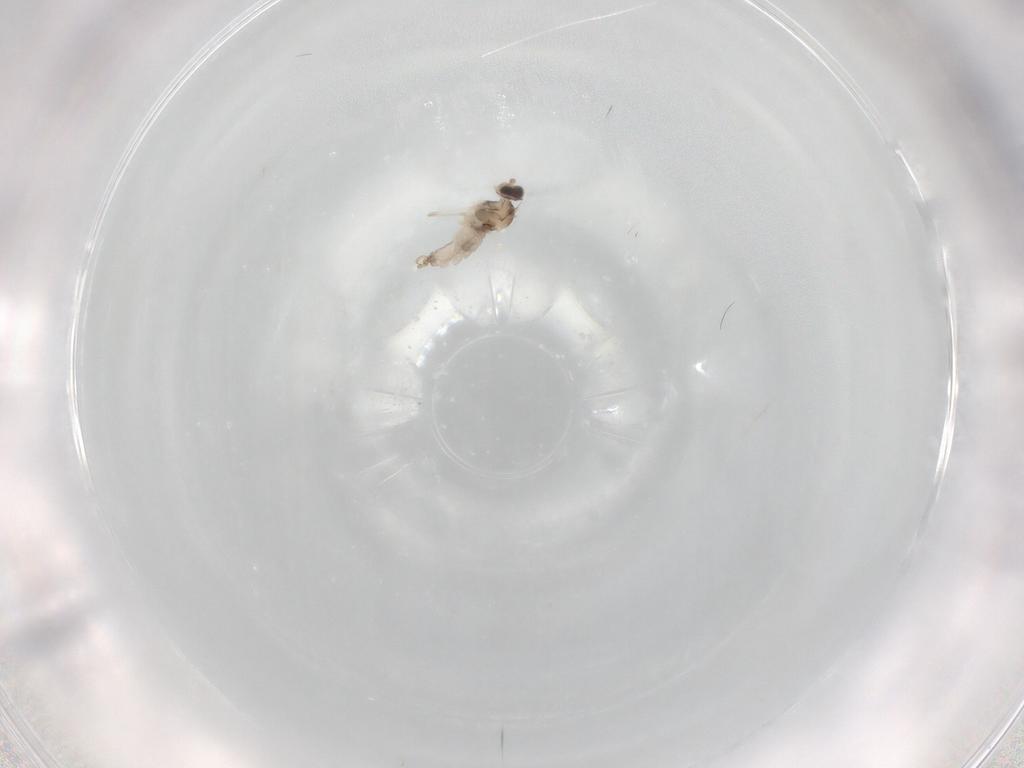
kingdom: Animalia
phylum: Arthropoda
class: Insecta
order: Diptera
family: Cecidomyiidae
